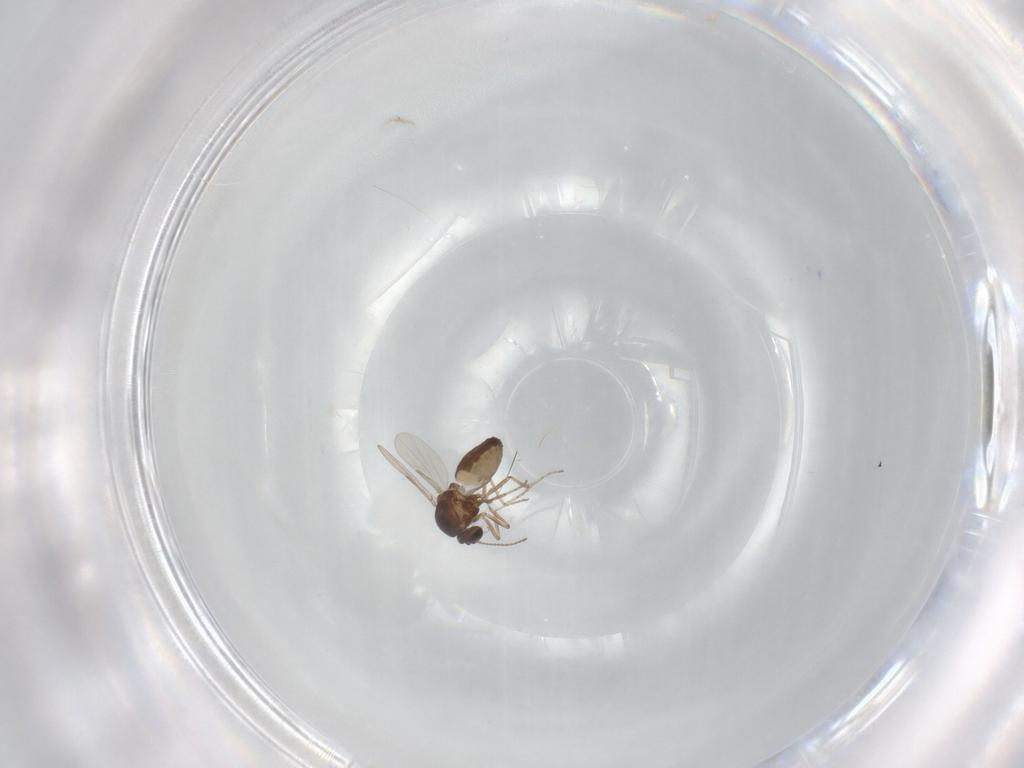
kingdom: Animalia
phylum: Arthropoda
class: Insecta
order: Diptera
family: Ceratopogonidae
